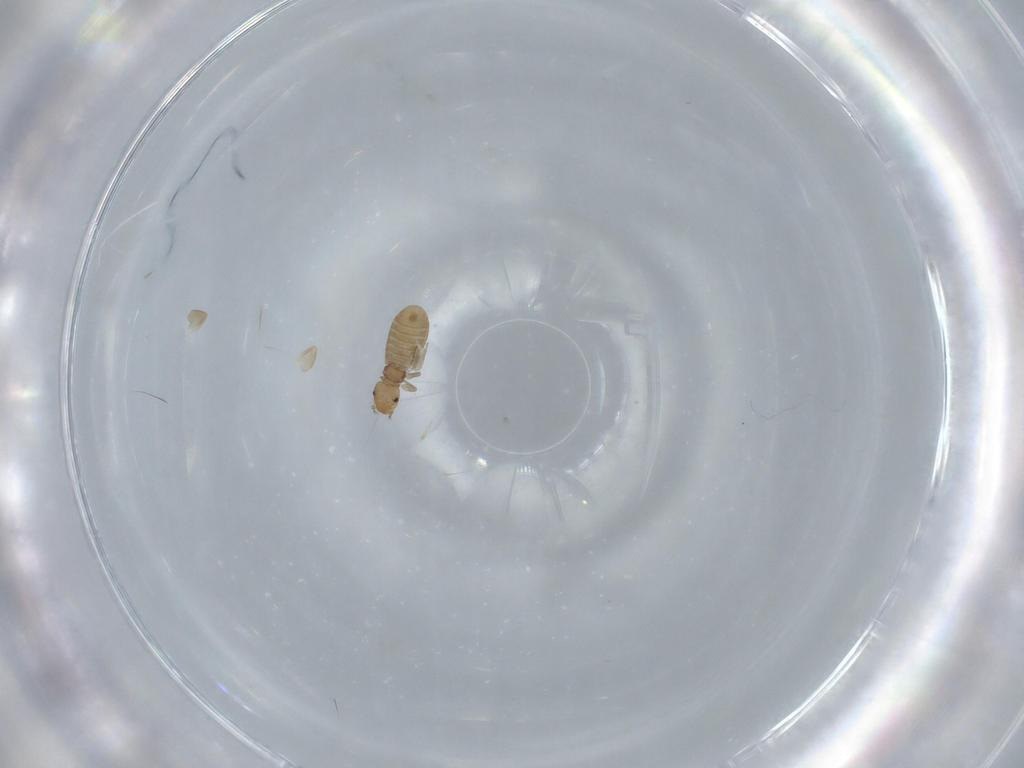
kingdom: Animalia
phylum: Arthropoda
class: Insecta
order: Psocodea
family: Liposcelididae
